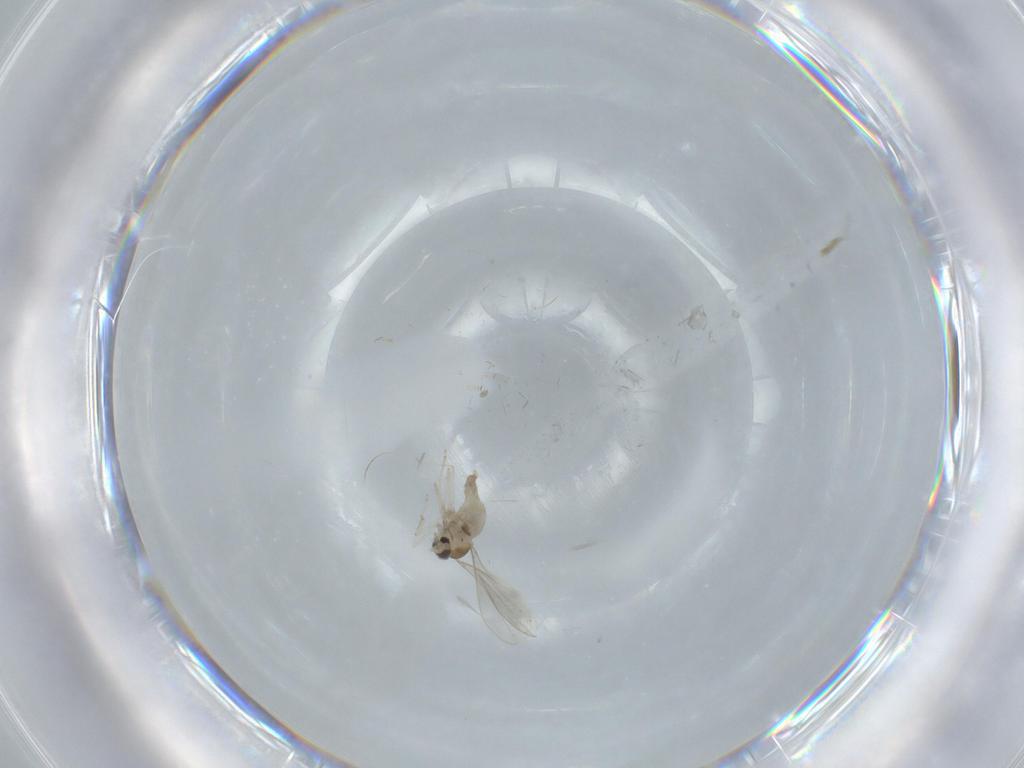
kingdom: Animalia
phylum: Arthropoda
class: Insecta
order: Diptera
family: Cecidomyiidae
